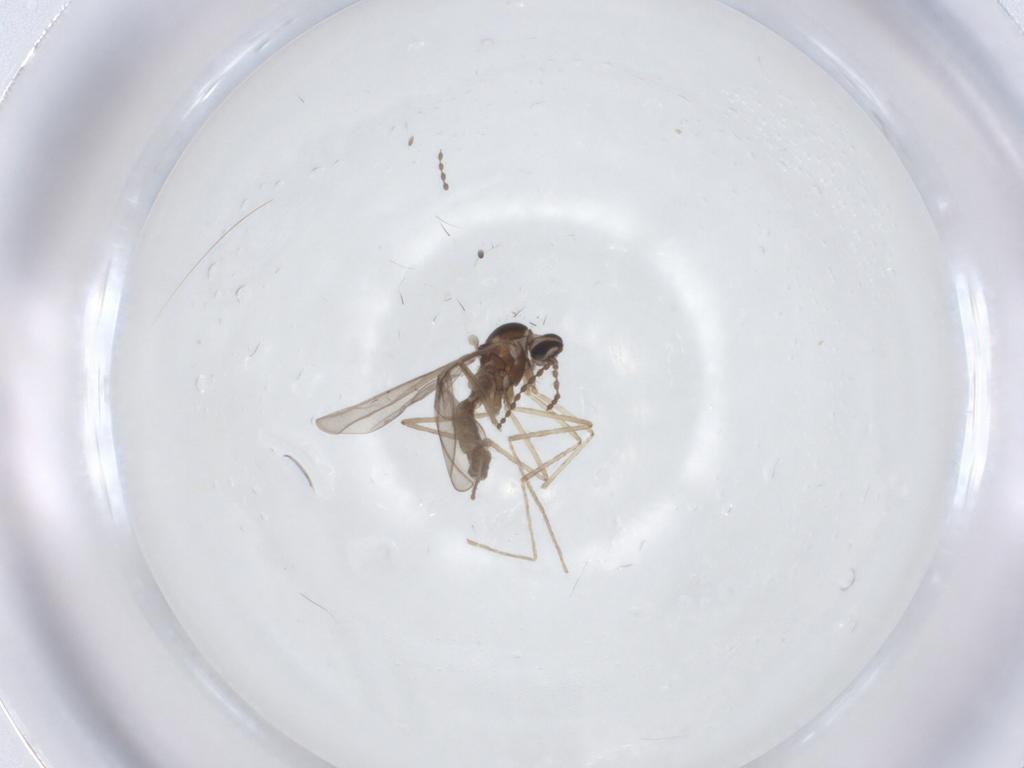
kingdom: Animalia
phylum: Arthropoda
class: Insecta
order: Diptera
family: Cecidomyiidae
